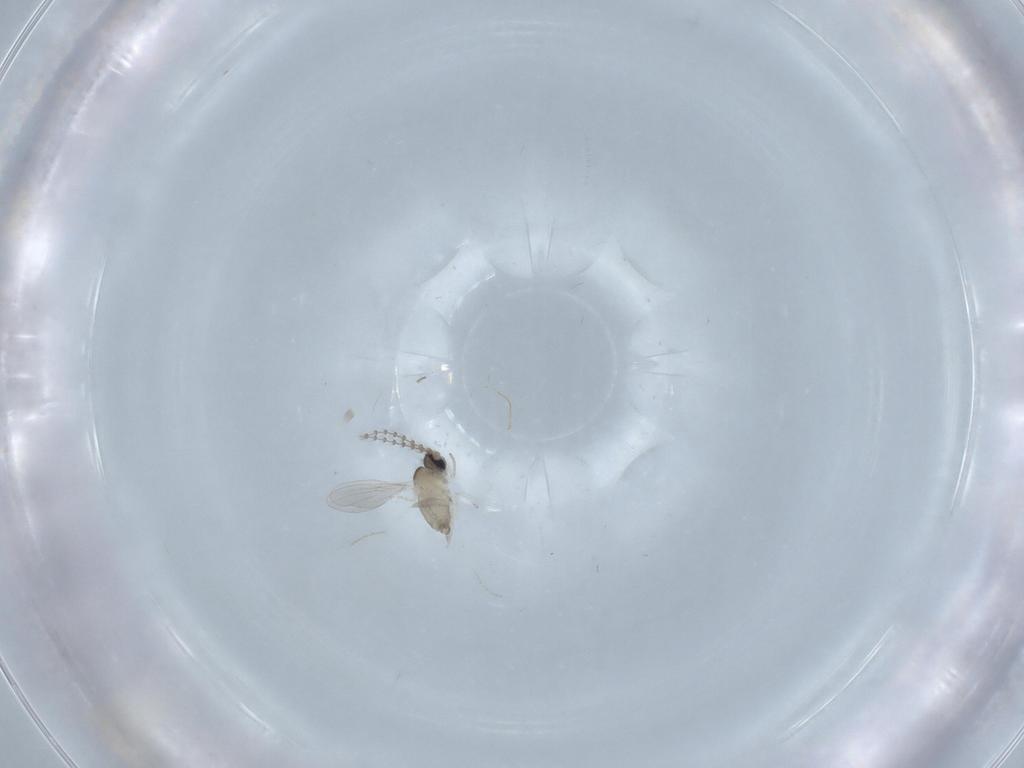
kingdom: Animalia
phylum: Arthropoda
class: Insecta
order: Diptera
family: Cecidomyiidae
